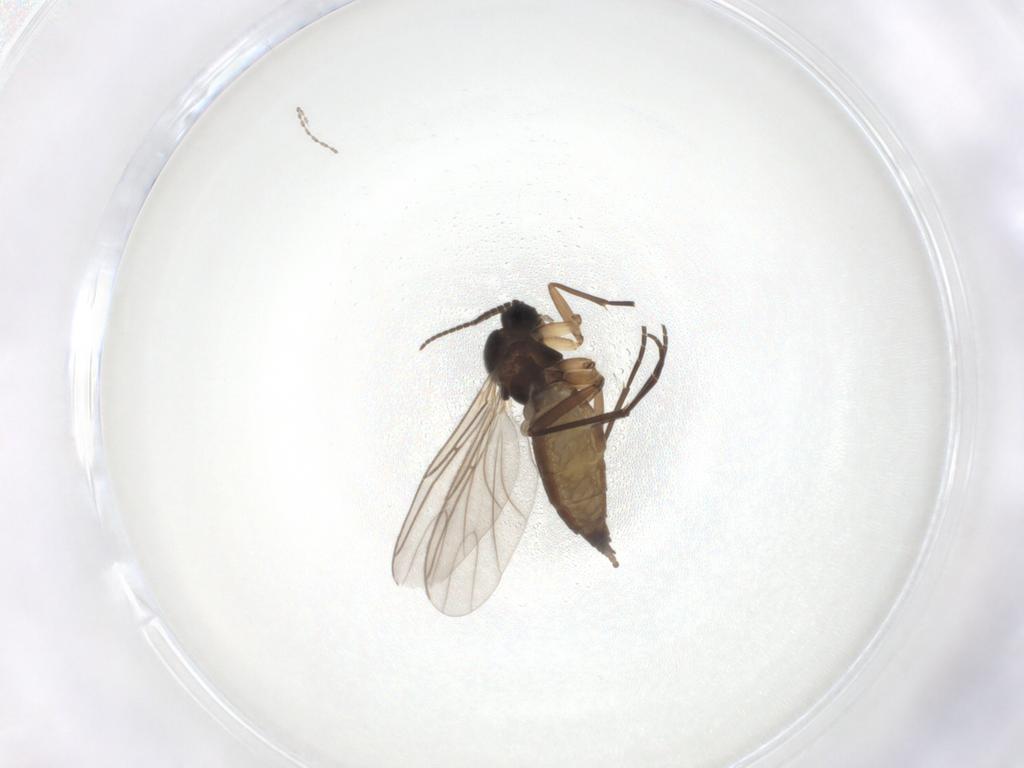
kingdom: Animalia
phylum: Arthropoda
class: Insecta
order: Diptera
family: Sciaridae
